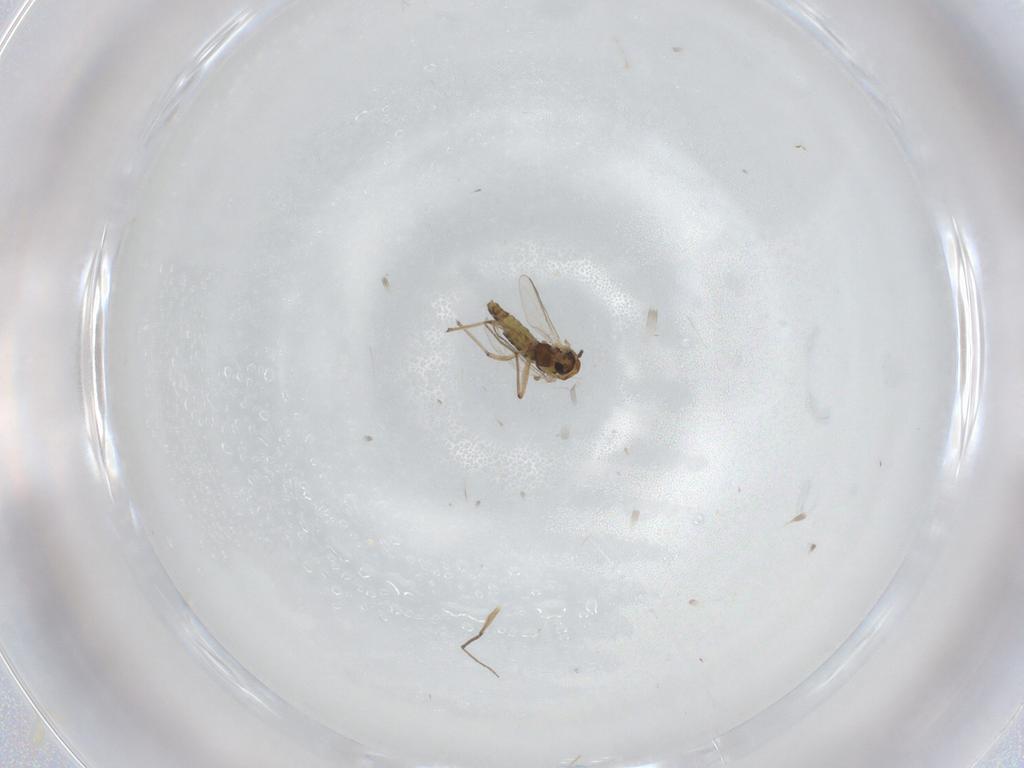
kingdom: Animalia
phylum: Arthropoda
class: Insecta
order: Diptera
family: Chironomidae
